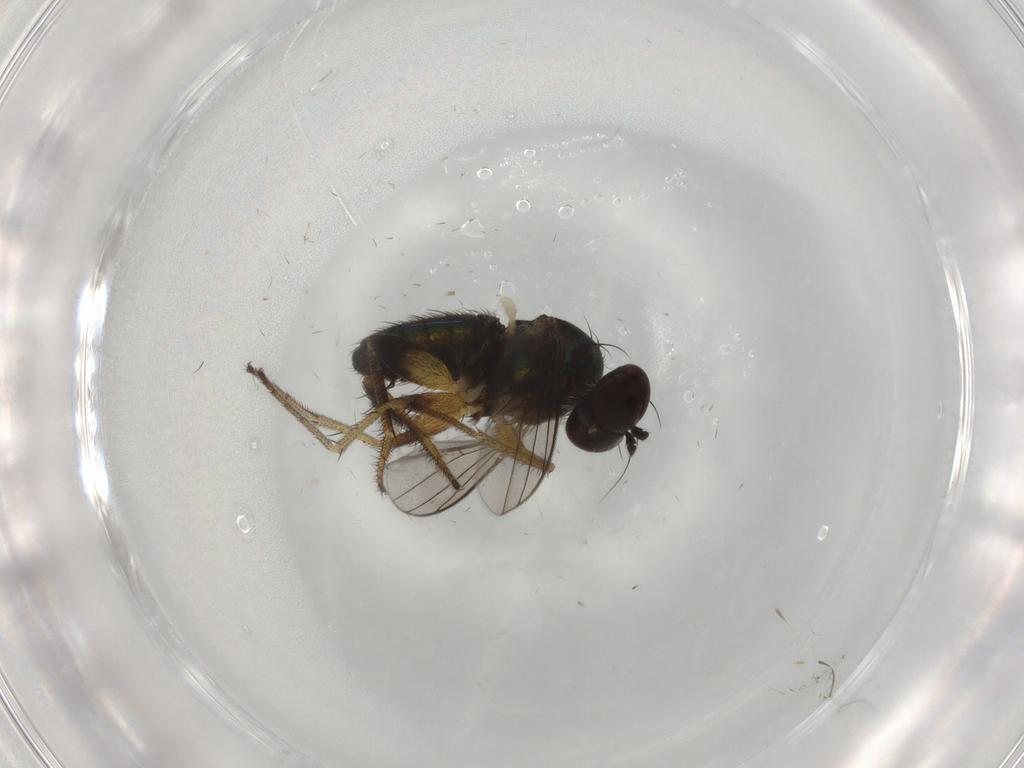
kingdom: Animalia
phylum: Arthropoda
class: Insecta
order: Diptera
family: Dolichopodidae
